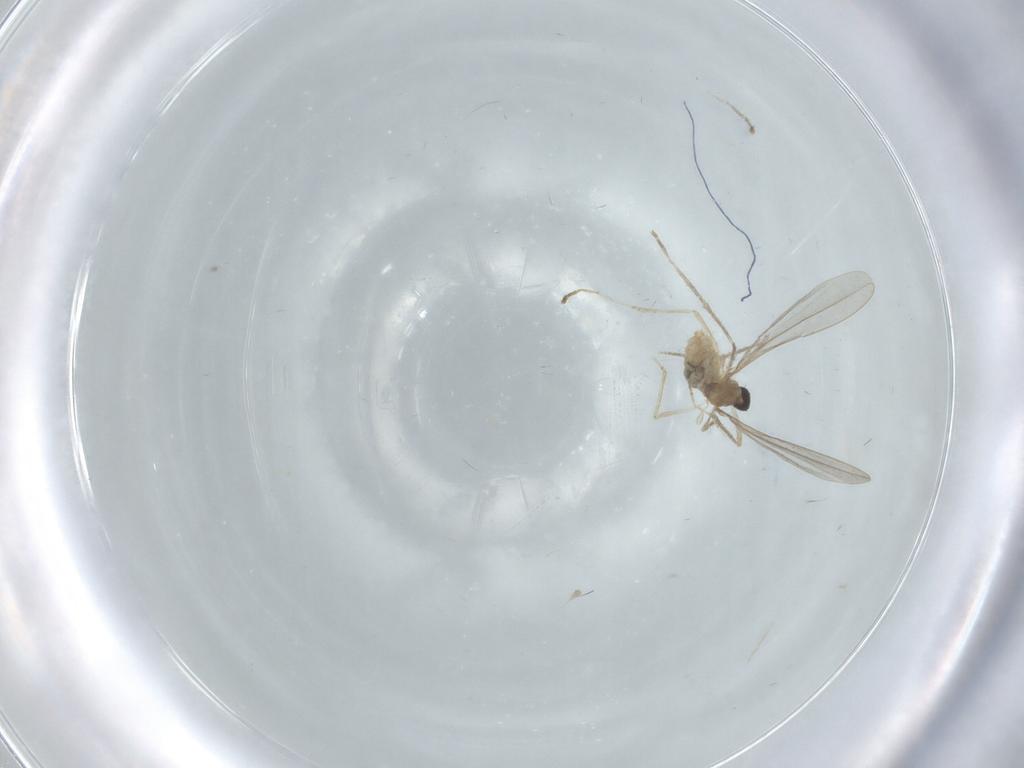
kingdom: Animalia
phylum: Arthropoda
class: Insecta
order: Diptera
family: Cecidomyiidae
